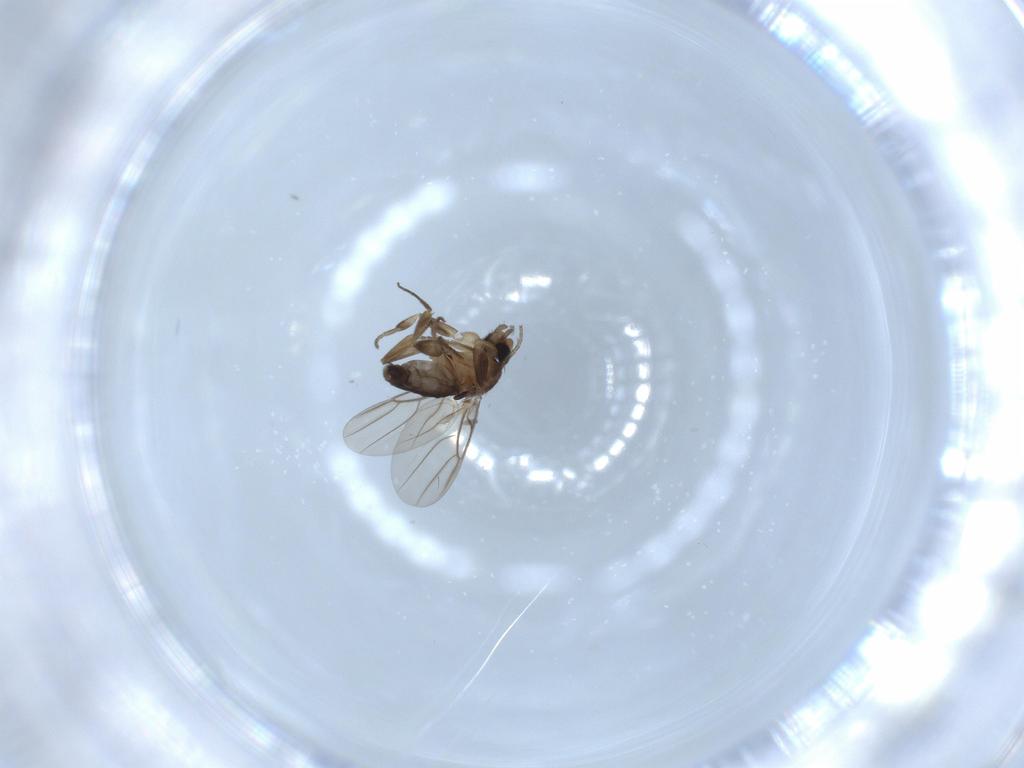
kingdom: Animalia
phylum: Arthropoda
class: Insecta
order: Diptera
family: Phoridae
